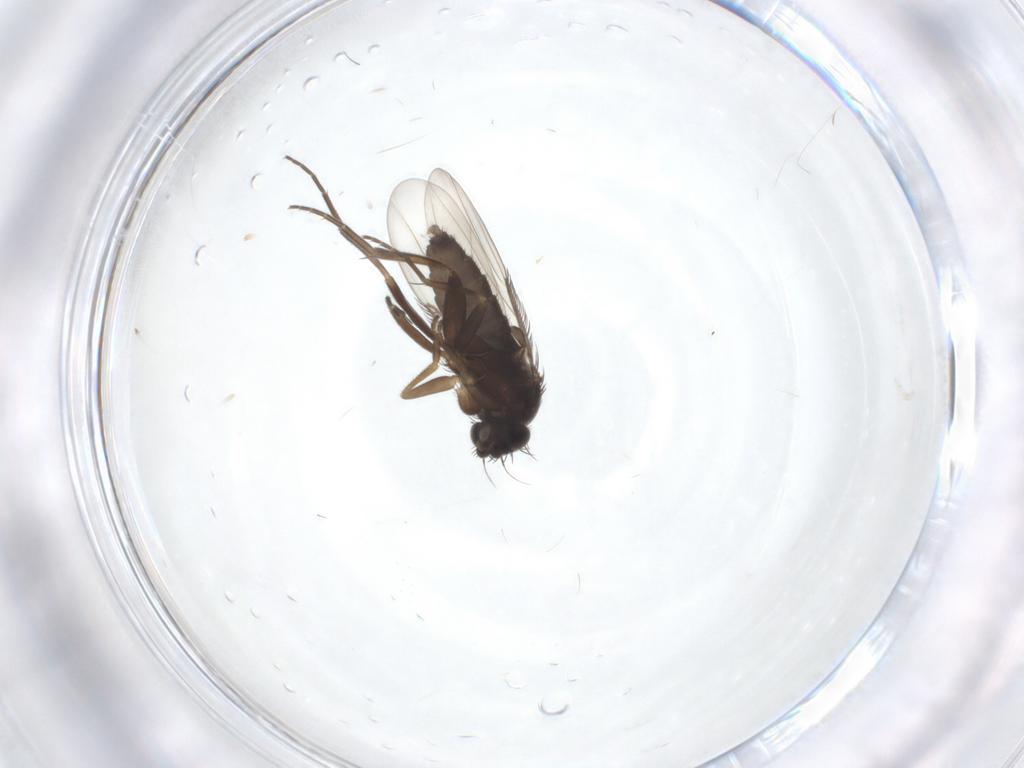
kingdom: Animalia
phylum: Arthropoda
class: Insecta
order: Diptera
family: Phoridae
